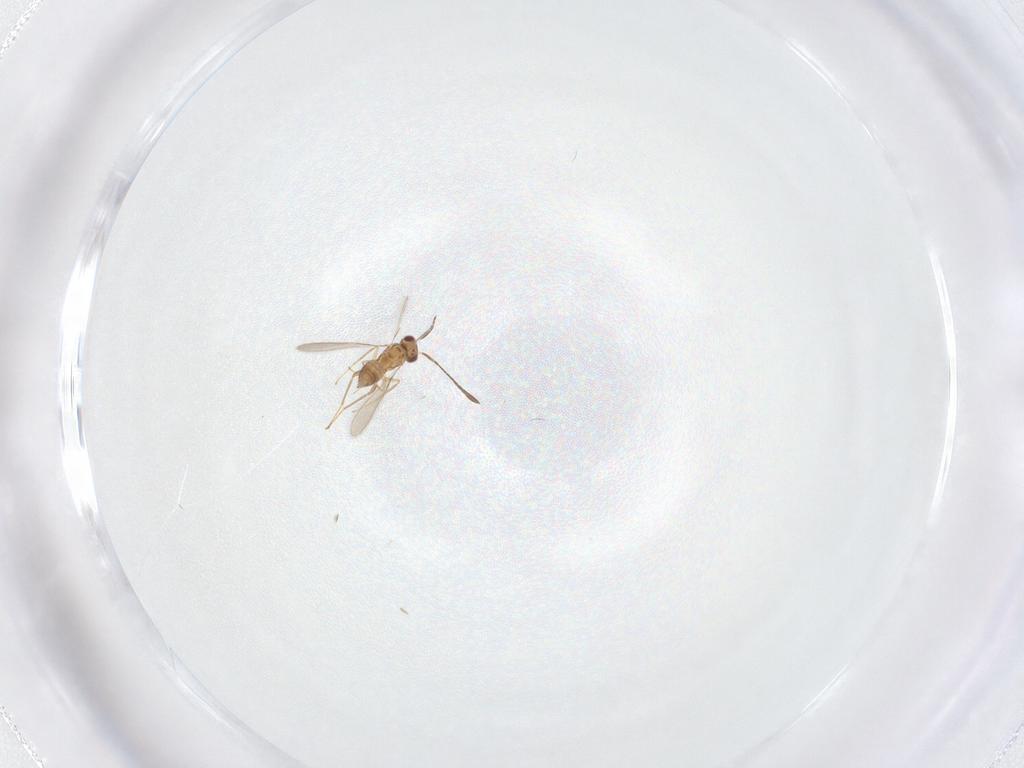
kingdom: Animalia
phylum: Arthropoda
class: Insecta
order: Hymenoptera
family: Mymaridae
